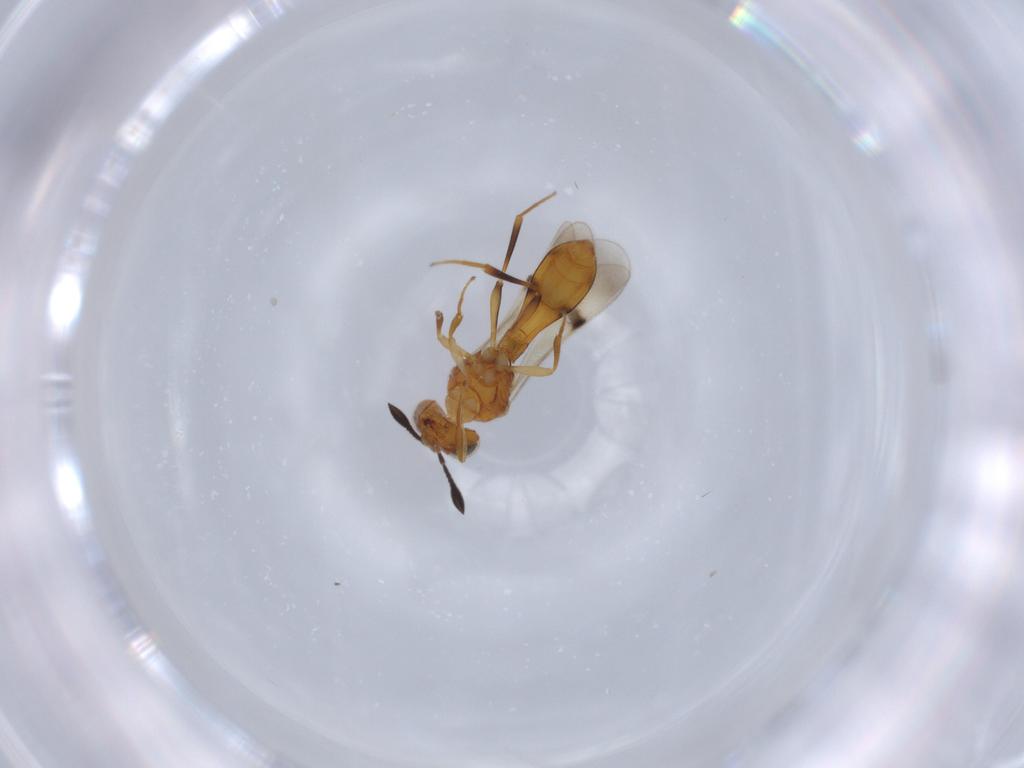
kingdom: Animalia
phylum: Arthropoda
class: Insecta
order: Hymenoptera
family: Scelionidae
